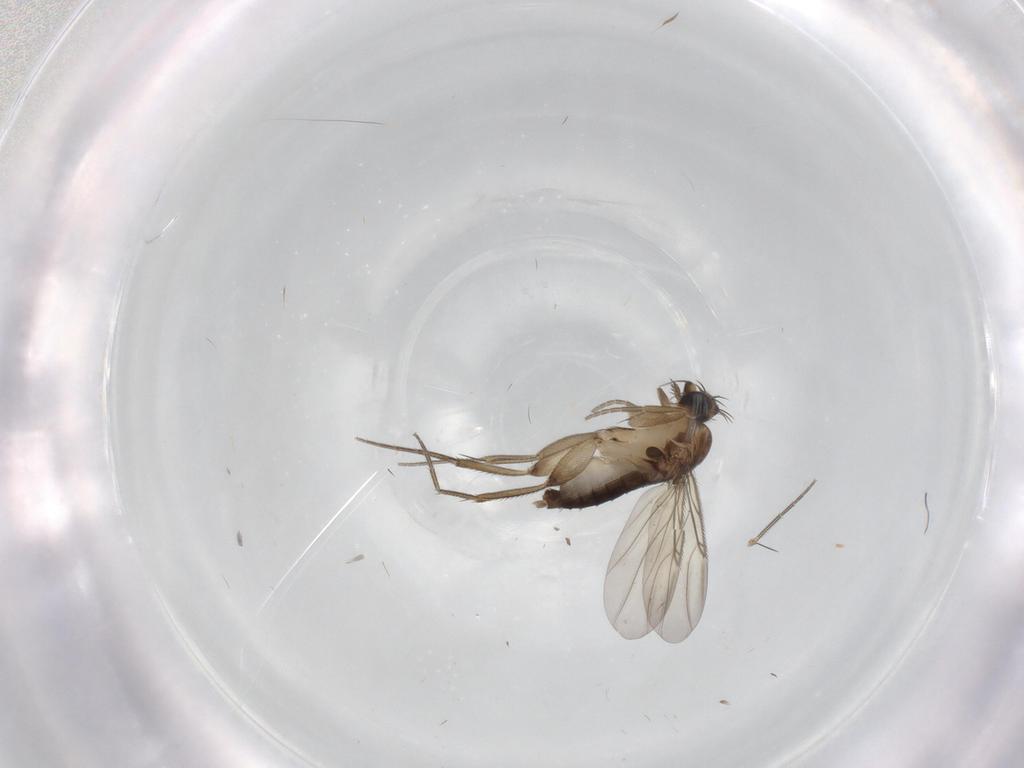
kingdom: Animalia
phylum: Arthropoda
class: Insecta
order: Diptera
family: Phoridae
